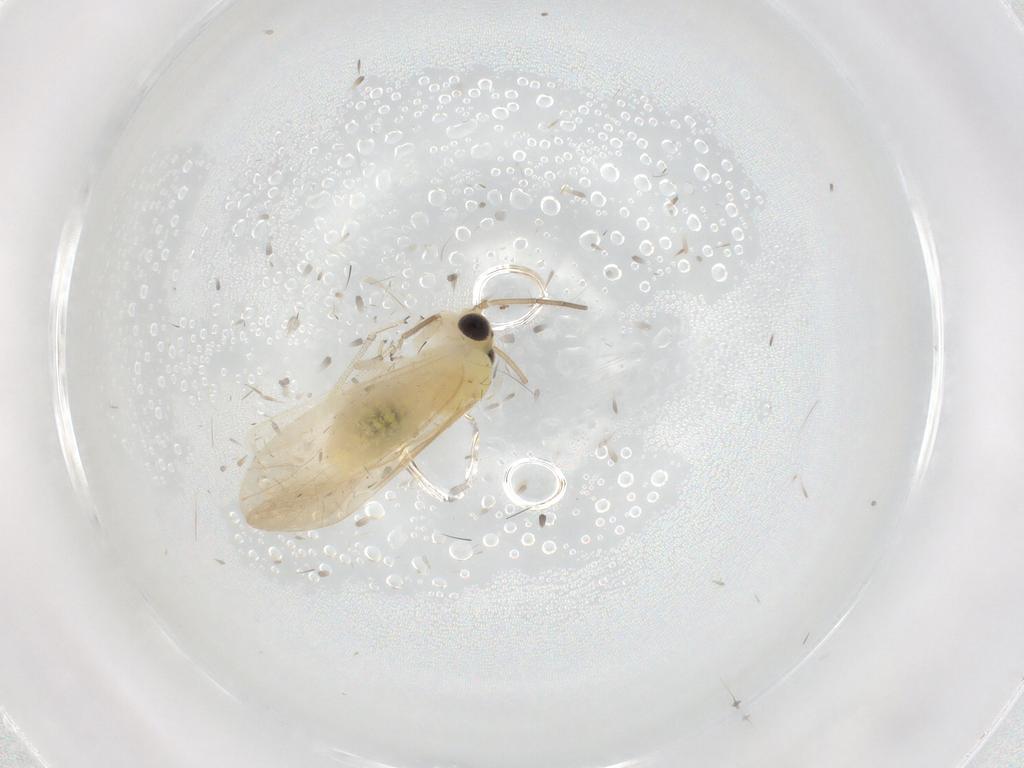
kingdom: Animalia
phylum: Arthropoda
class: Insecta
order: Psocodea
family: Caeciliusidae
